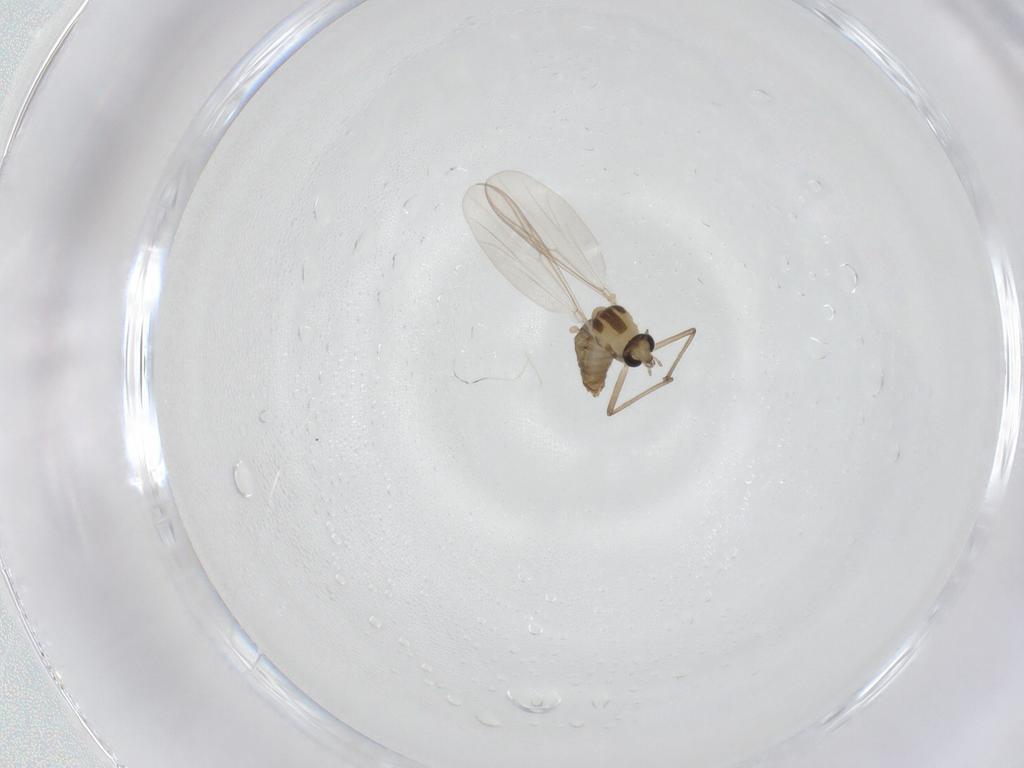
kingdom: Animalia
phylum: Arthropoda
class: Insecta
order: Diptera
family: Chironomidae
